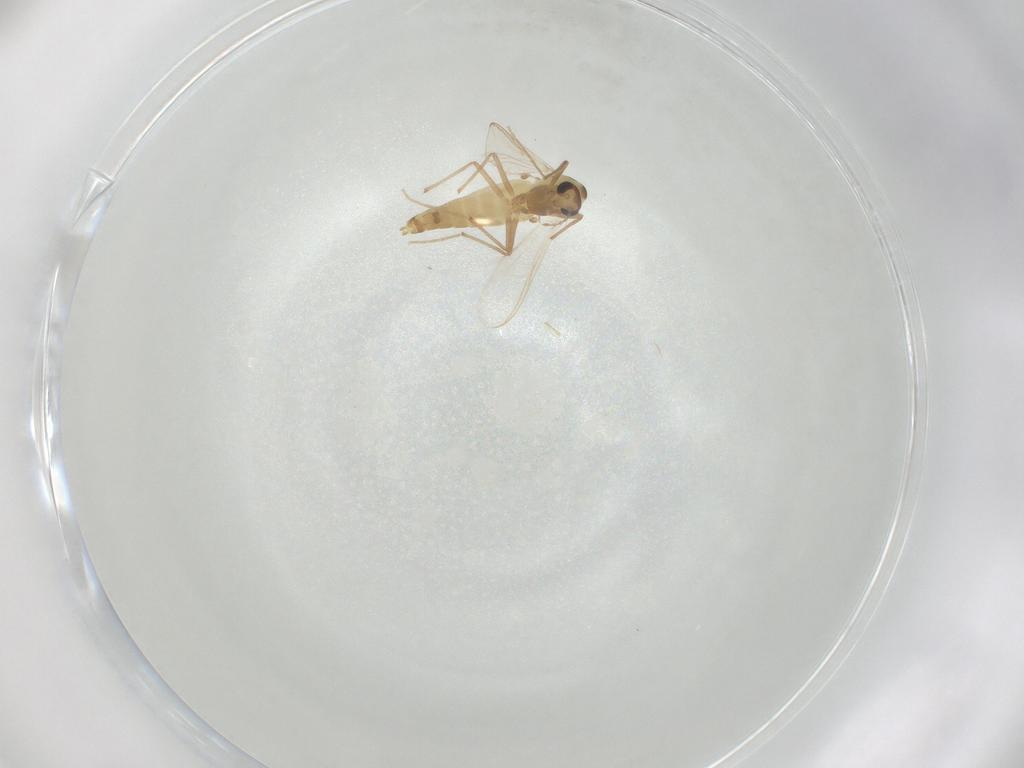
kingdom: Animalia
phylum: Arthropoda
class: Insecta
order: Diptera
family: Chironomidae
